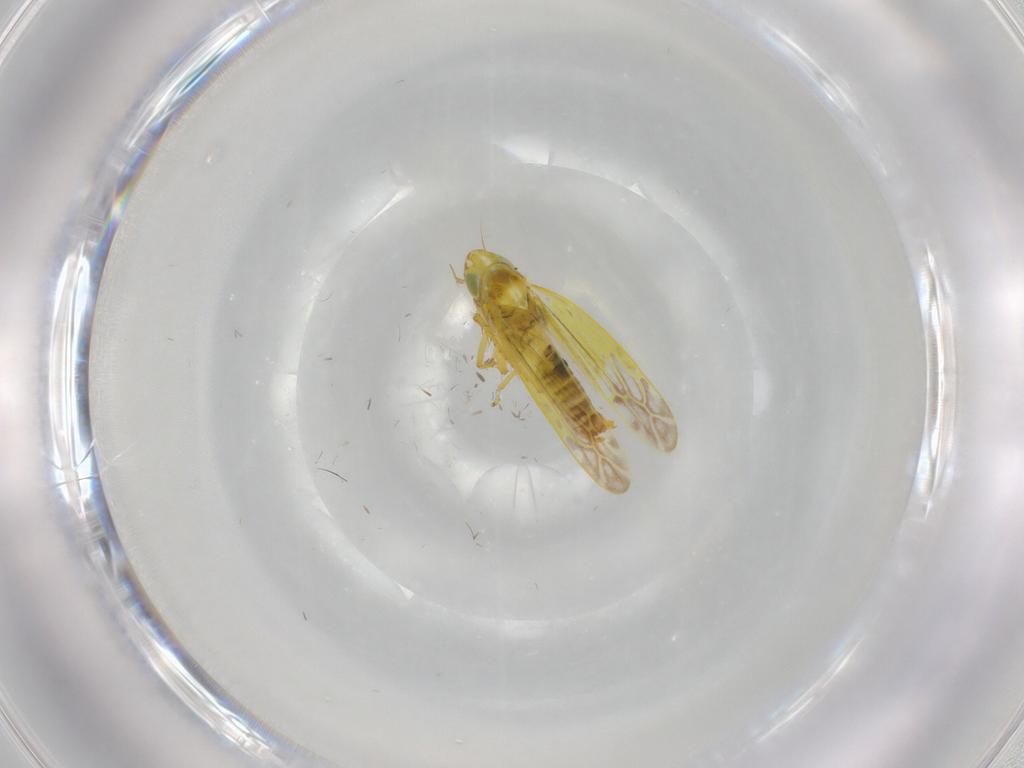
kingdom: Animalia
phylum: Arthropoda
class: Insecta
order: Hemiptera
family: Cicadellidae
